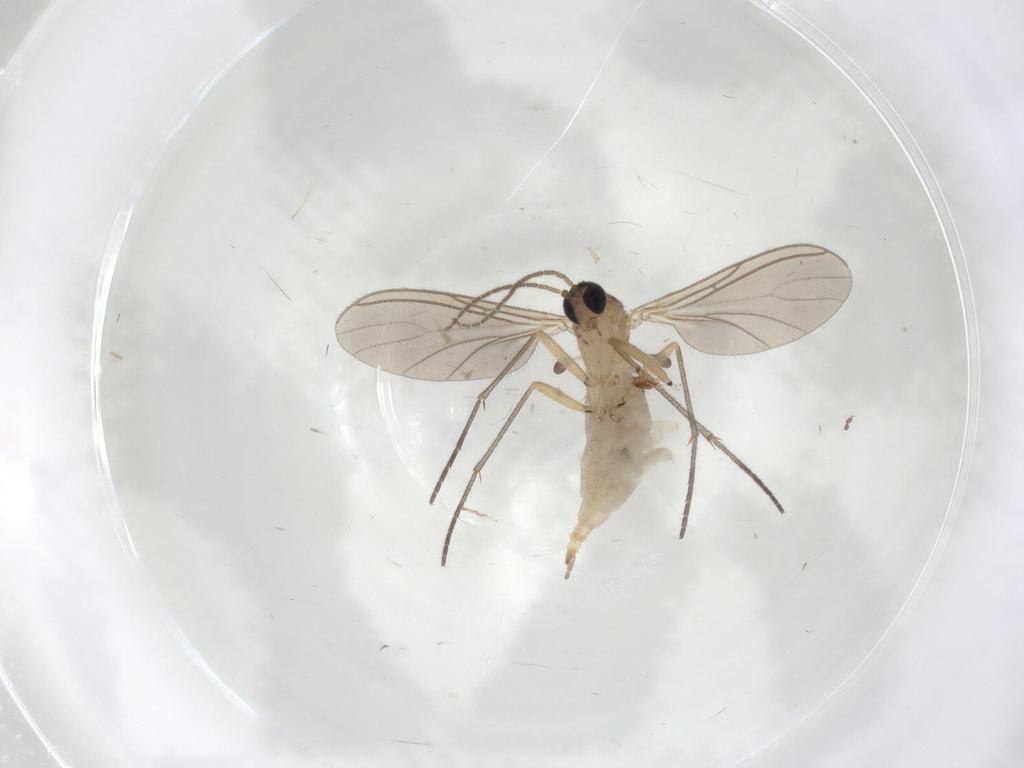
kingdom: Animalia
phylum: Arthropoda
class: Insecta
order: Diptera
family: Sciaridae
